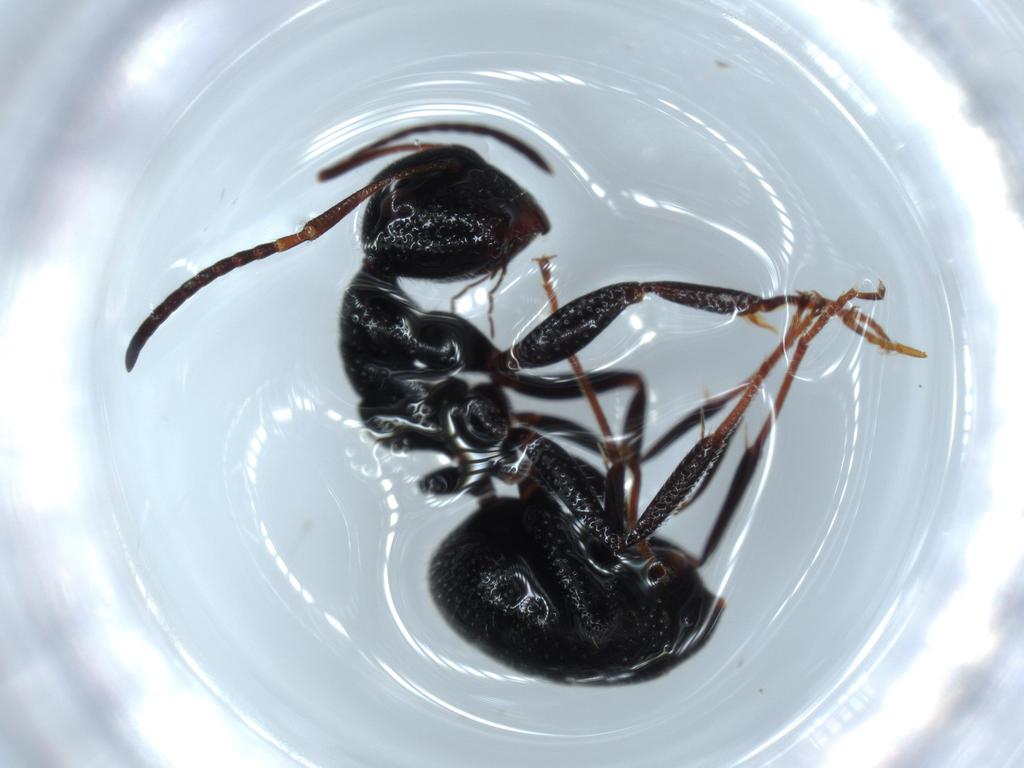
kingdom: Animalia
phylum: Arthropoda
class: Insecta
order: Hymenoptera
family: Formicidae
